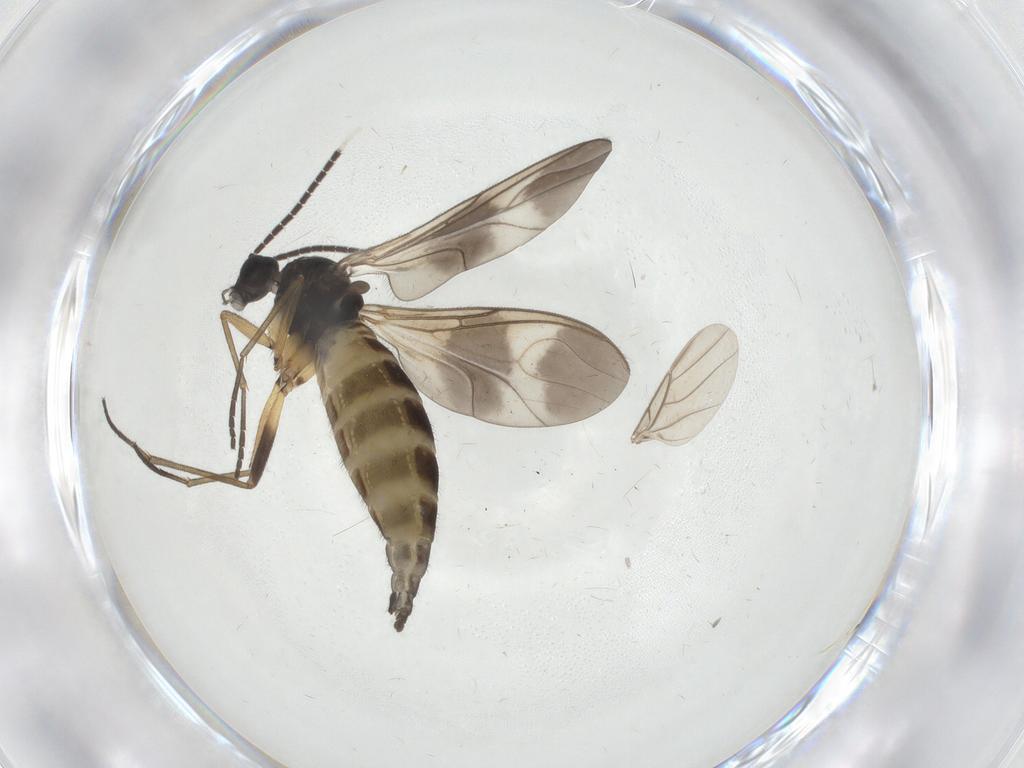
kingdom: Animalia
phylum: Arthropoda
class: Insecta
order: Diptera
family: Sciaridae
